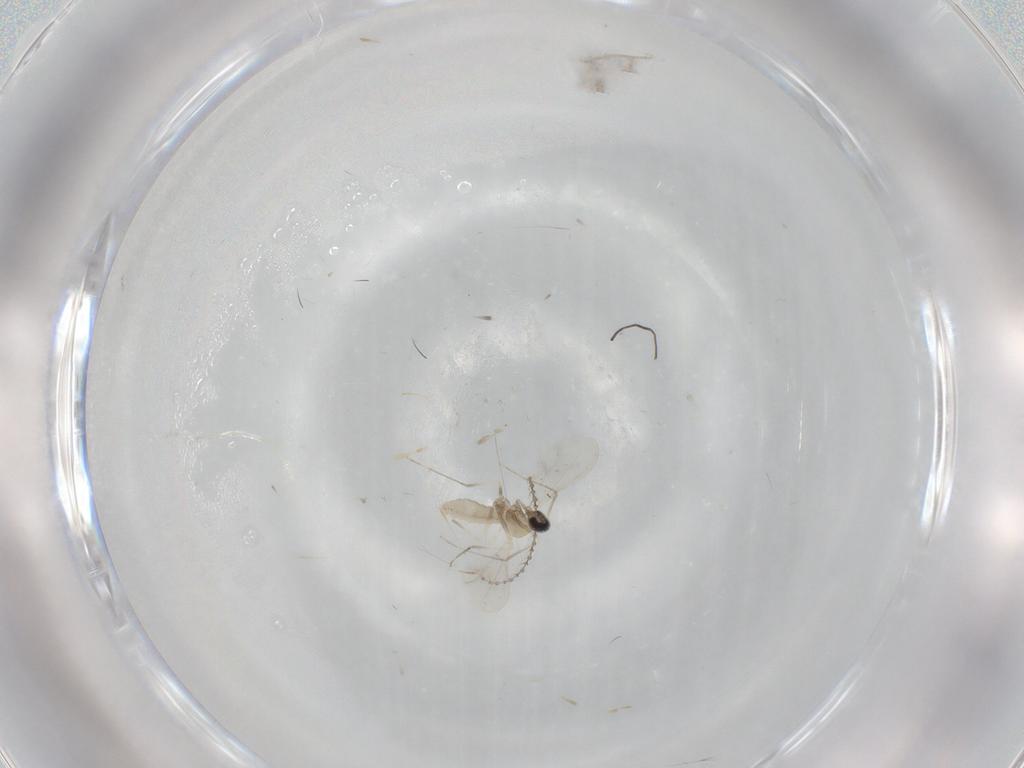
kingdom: Animalia
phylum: Arthropoda
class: Insecta
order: Diptera
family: Cecidomyiidae
